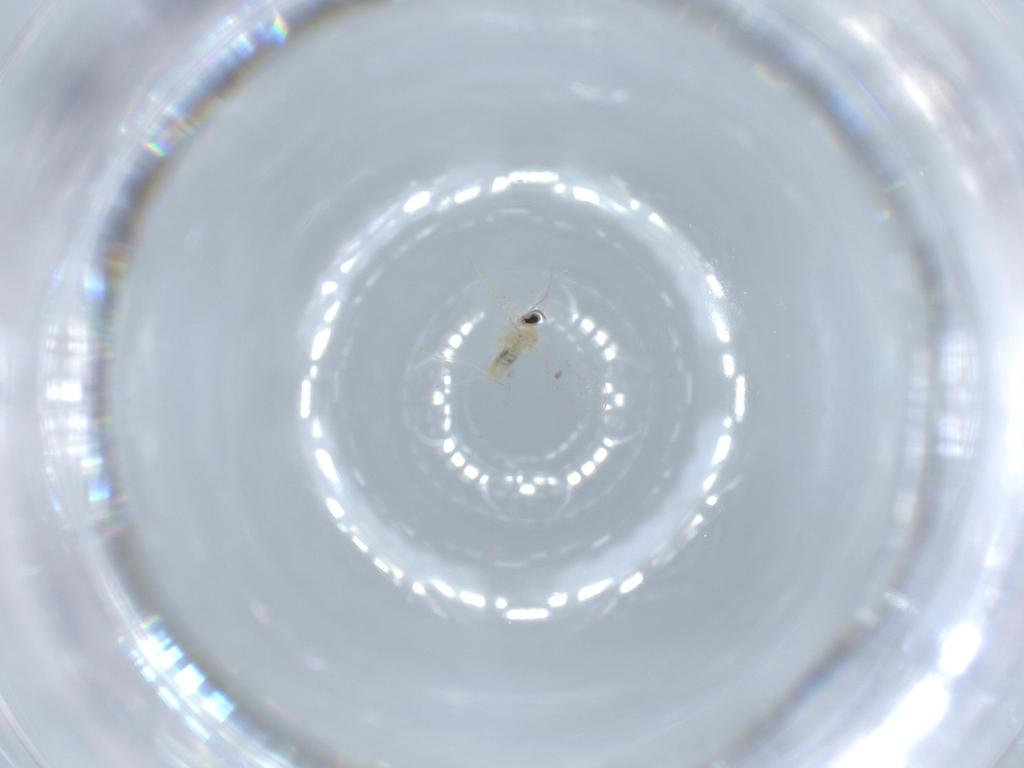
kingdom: Animalia
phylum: Arthropoda
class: Insecta
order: Diptera
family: Cecidomyiidae
